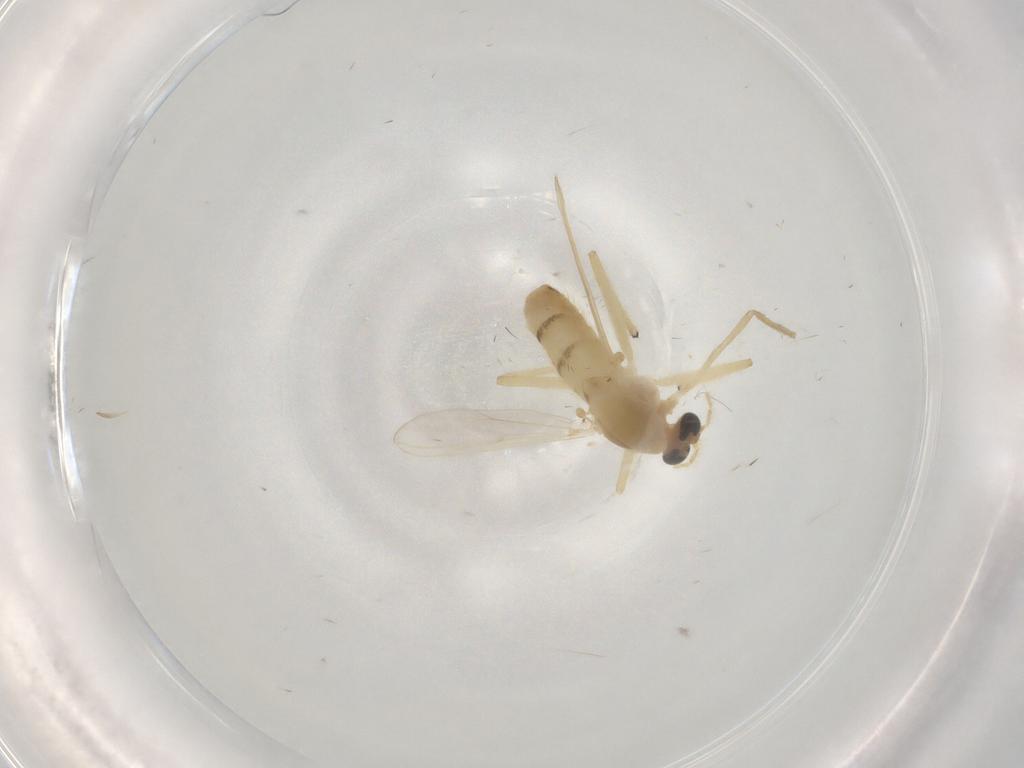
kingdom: Animalia
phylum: Arthropoda
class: Insecta
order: Diptera
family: Chironomidae
